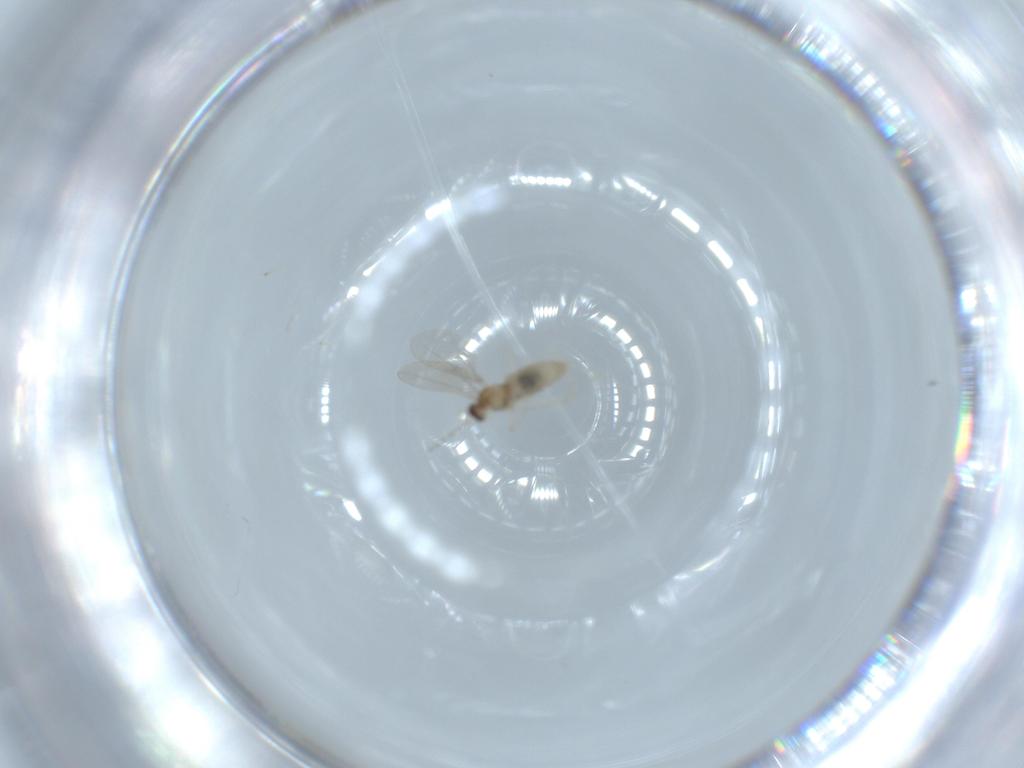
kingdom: Animalia
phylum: Arthropoda
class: Insecta
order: Diptera
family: Cecidomyiidae
